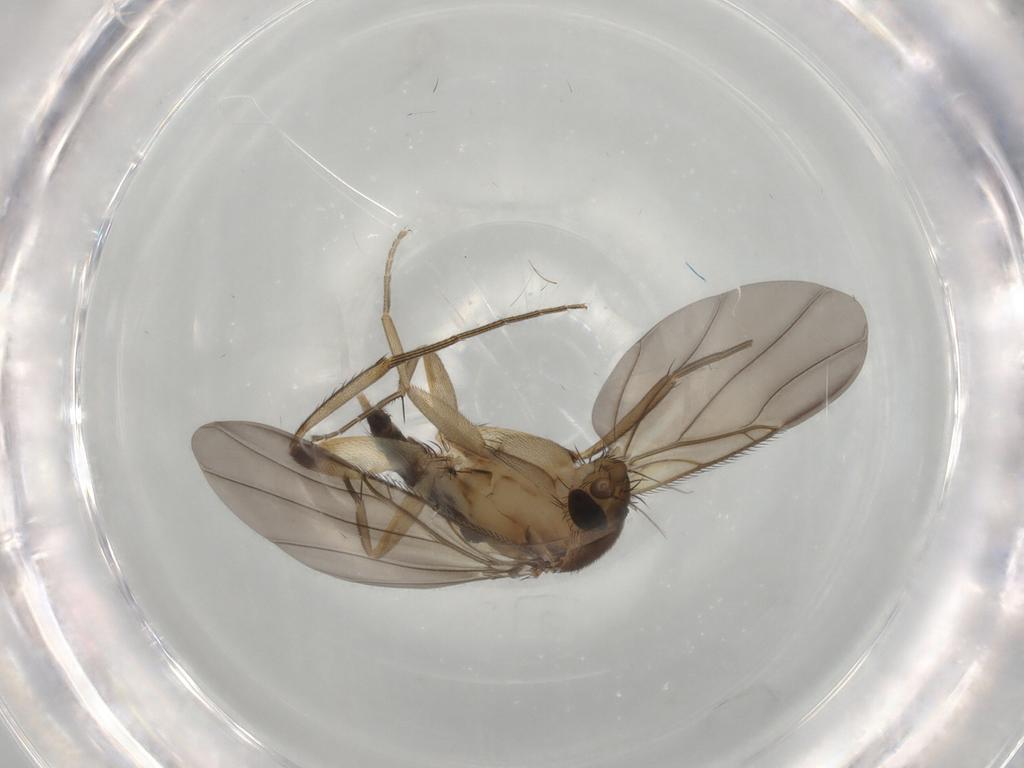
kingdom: Animalia
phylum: Arthropoda
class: Insecta
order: Diptera
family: Phoridae
